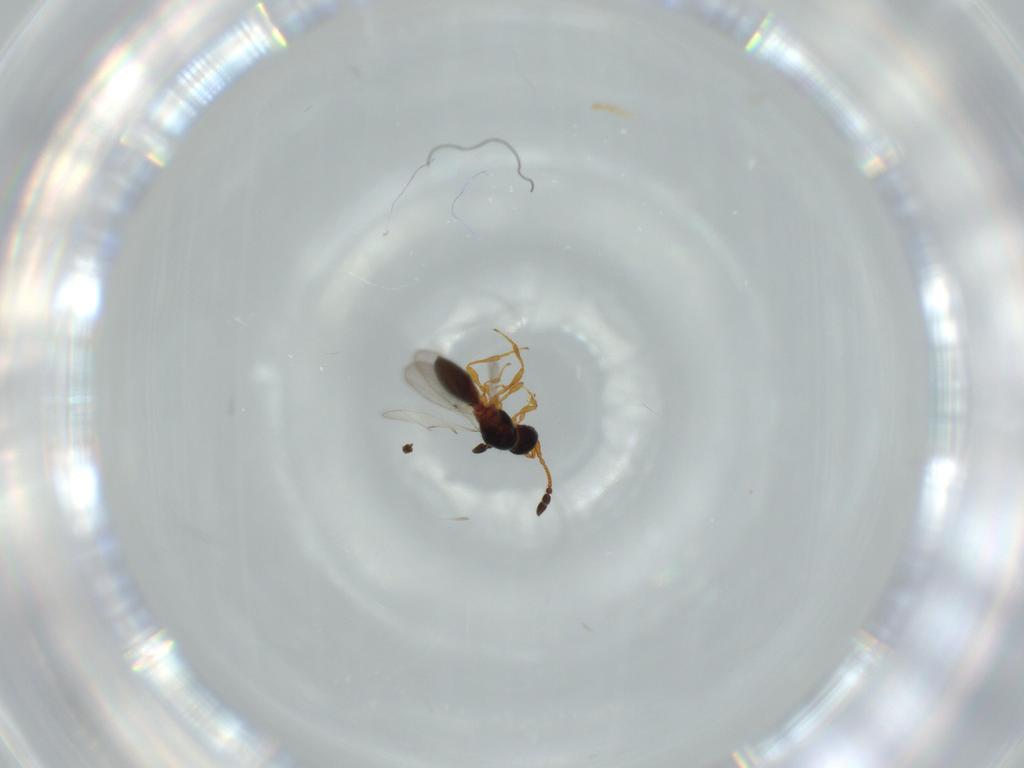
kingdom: Animalia
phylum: Arthropoda
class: Insecta
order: Hymenoptera
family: Diapriidae
